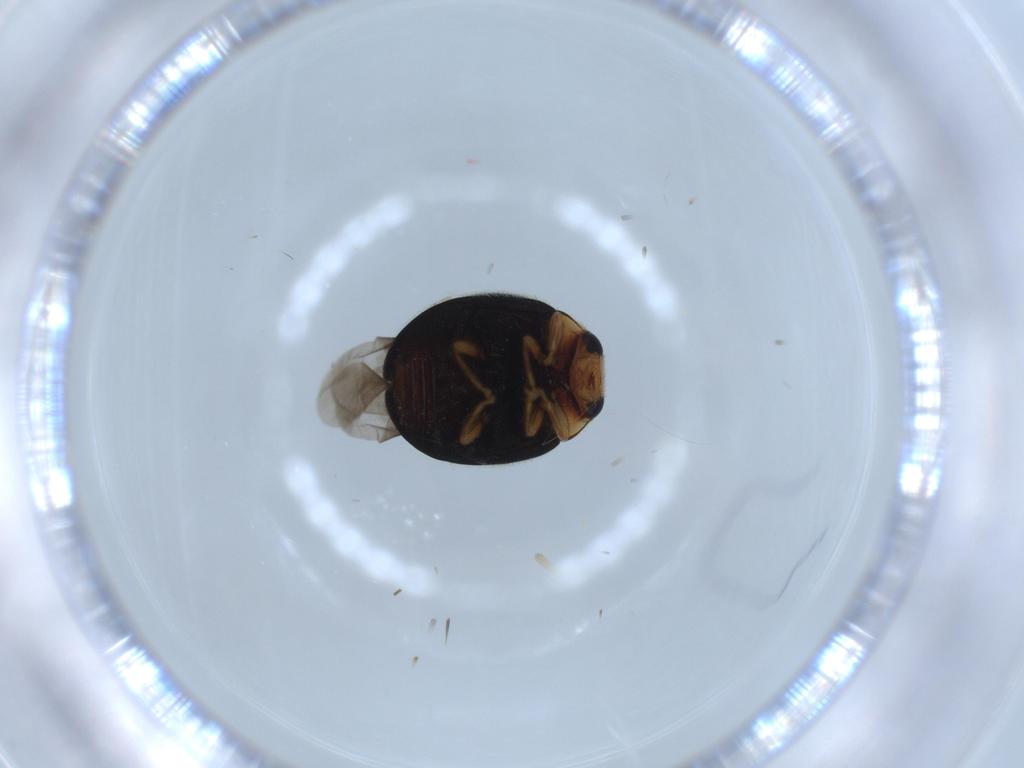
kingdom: Animalia
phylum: Arthropoda
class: Insecta
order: Coleoptera
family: Coccinellidae
